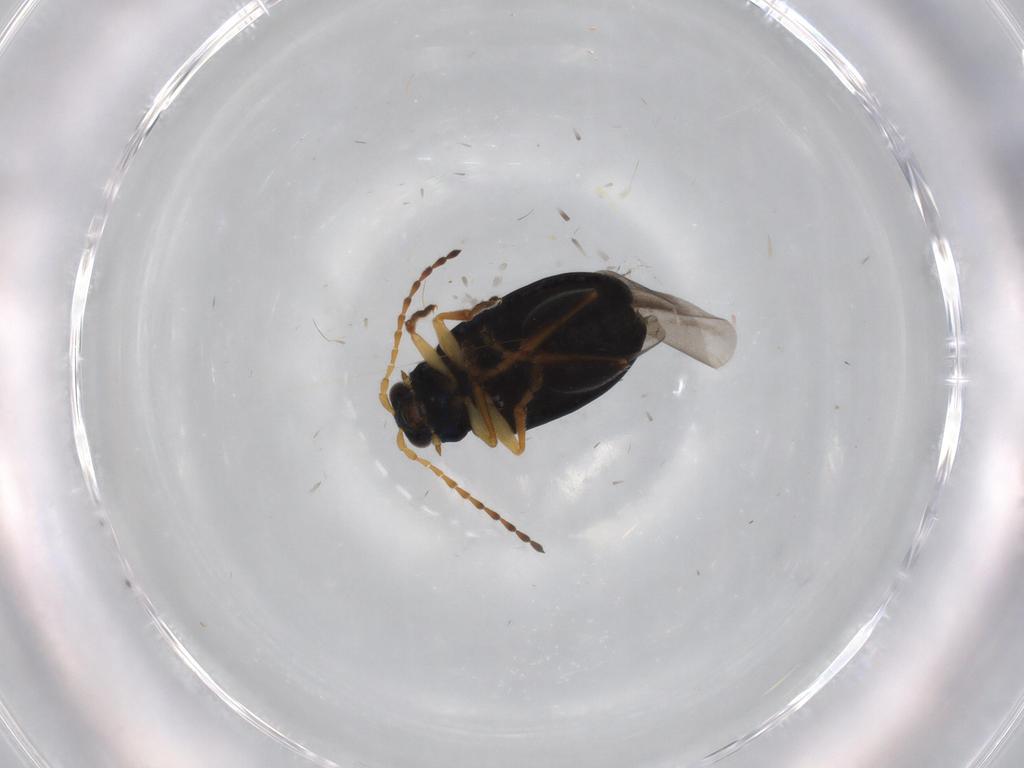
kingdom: Animalia
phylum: Arthropoda
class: Insecta
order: Coleoptera
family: Chrysomelidae
